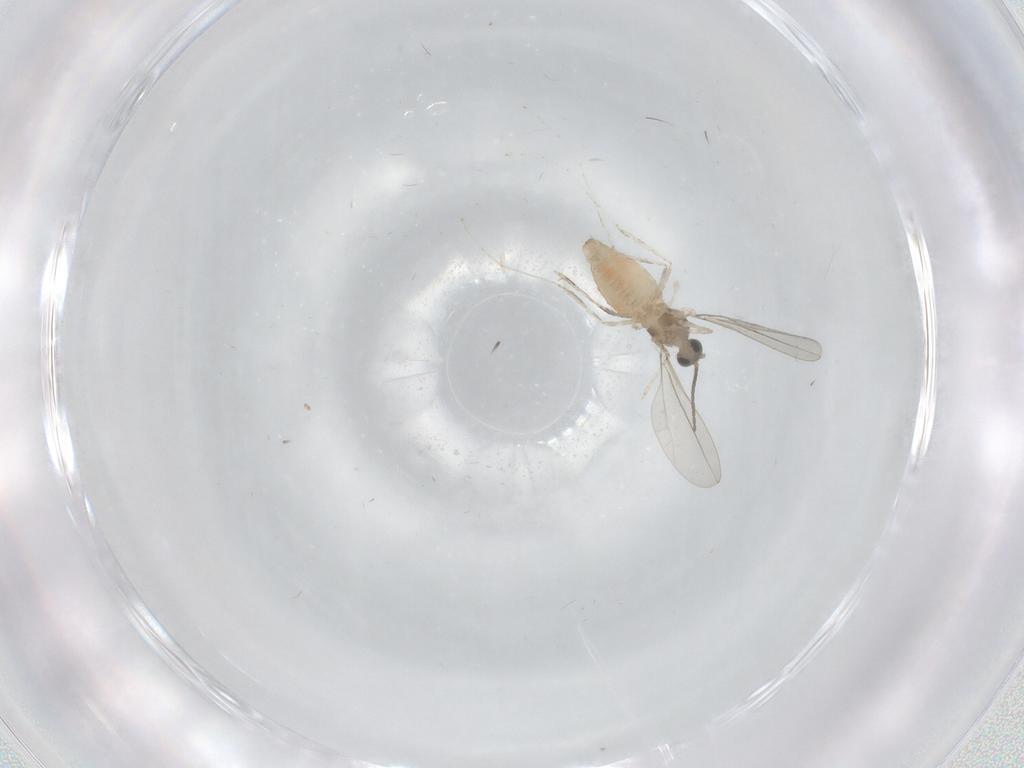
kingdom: Animalia
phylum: Arthropoda
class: Insecta
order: Diptera
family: Cecidomyiidae
